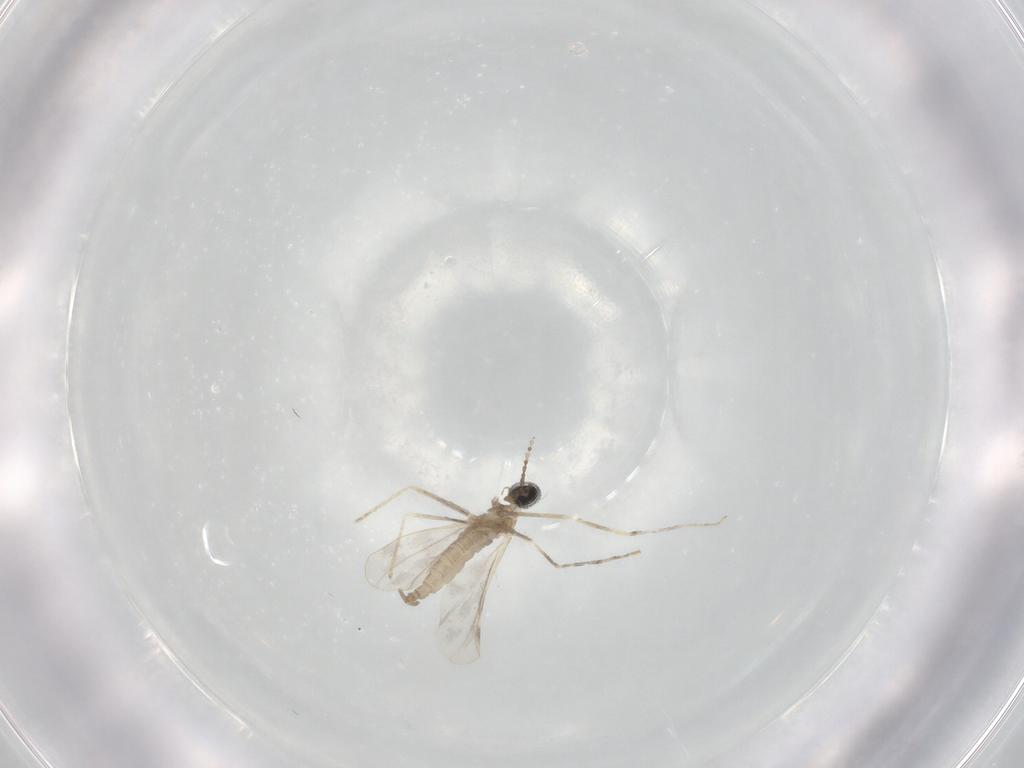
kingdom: Animalia
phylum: Arthropoda
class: Insecta
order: Diptera
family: Cecidomyiidae
